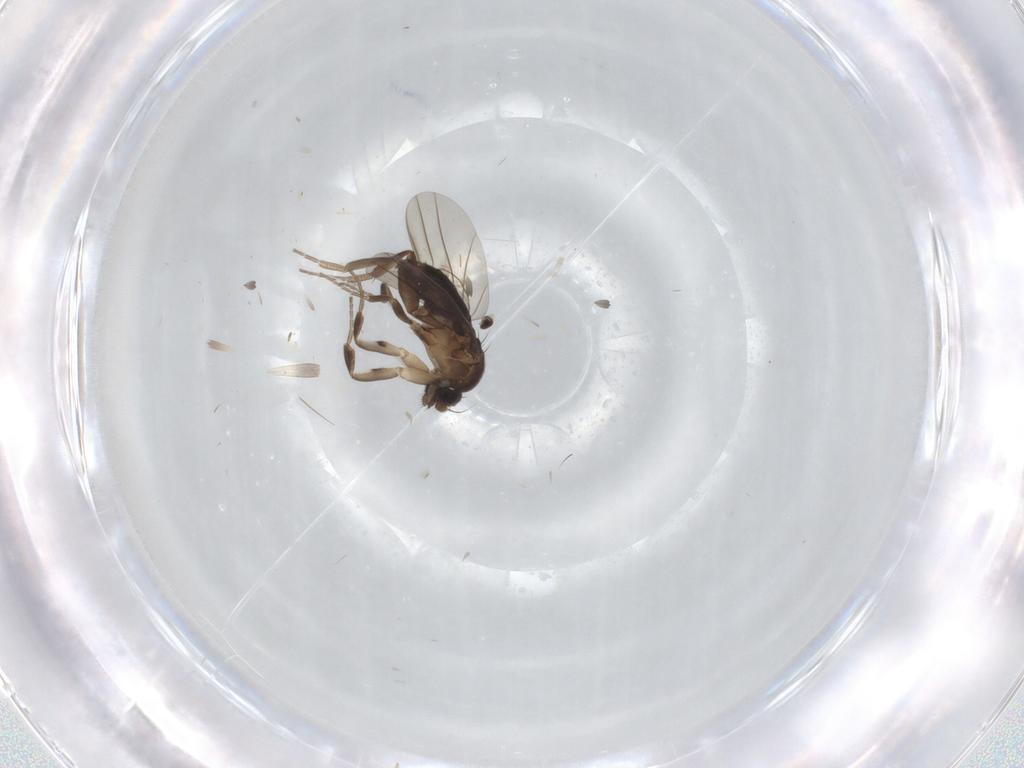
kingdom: Animalia
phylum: Arthropoda
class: Insecta
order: Diptera
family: Phoridae
